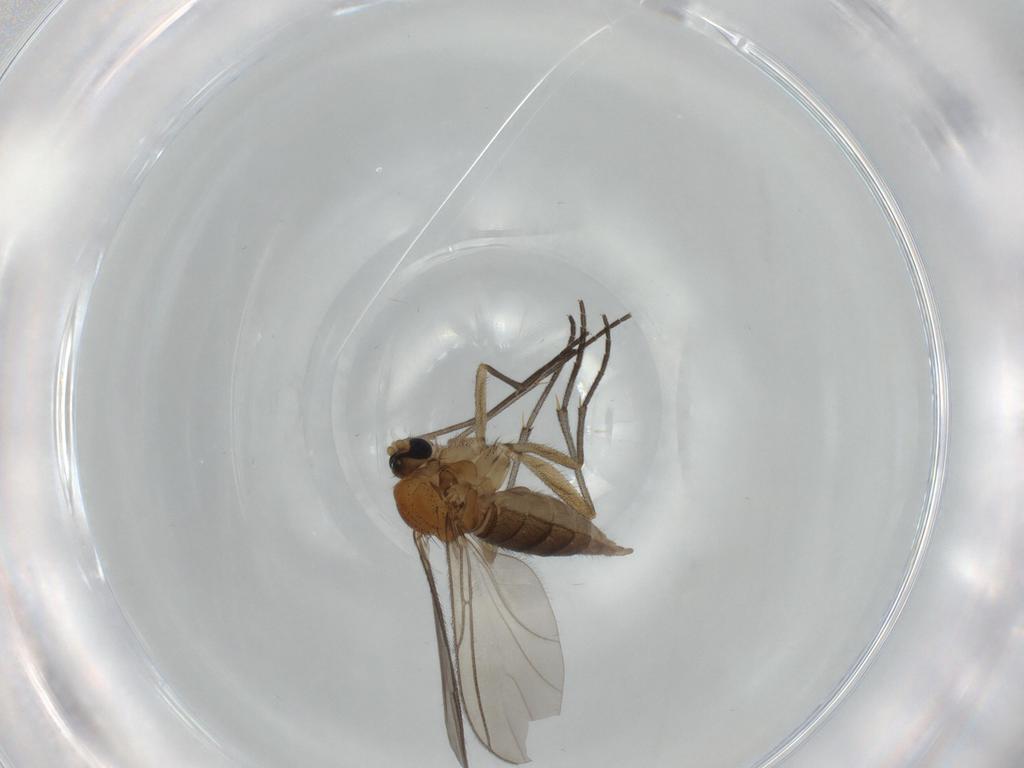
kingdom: Animalia
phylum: Arthropoda
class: Insecta
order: Diptera
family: Sciaridae
